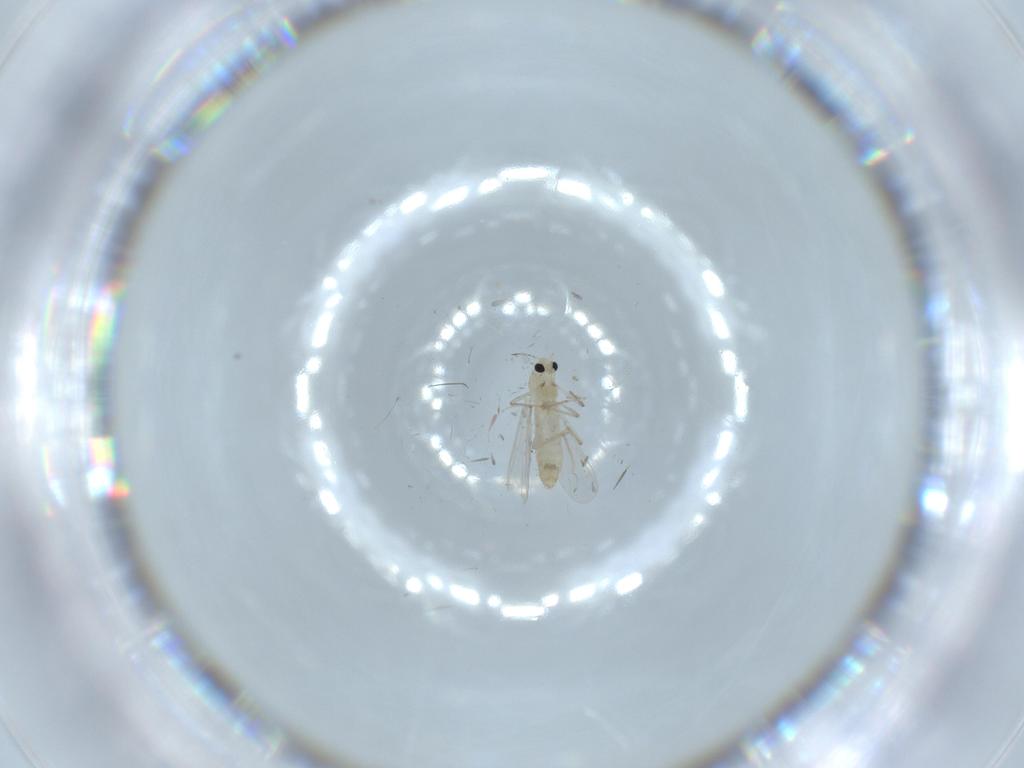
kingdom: Animalia
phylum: Arthropoda
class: Insecta
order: Diptera
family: Chironomidae
